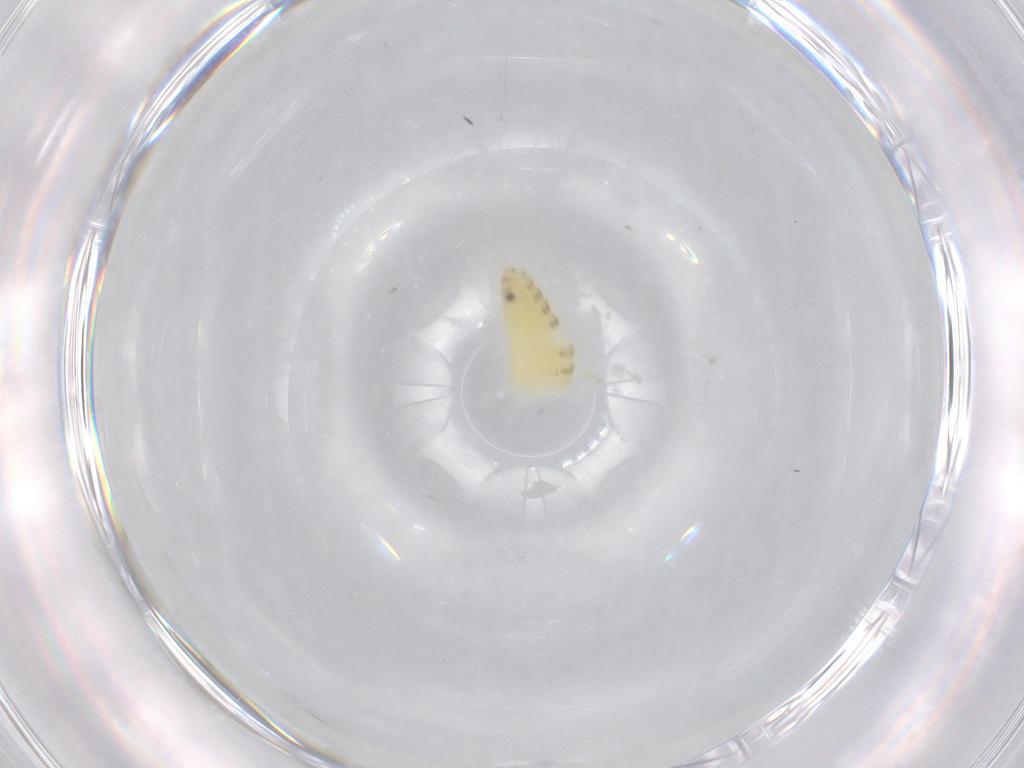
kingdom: Animalia
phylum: Arthropoda
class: Insecta
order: Diptera
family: Chironomidae
